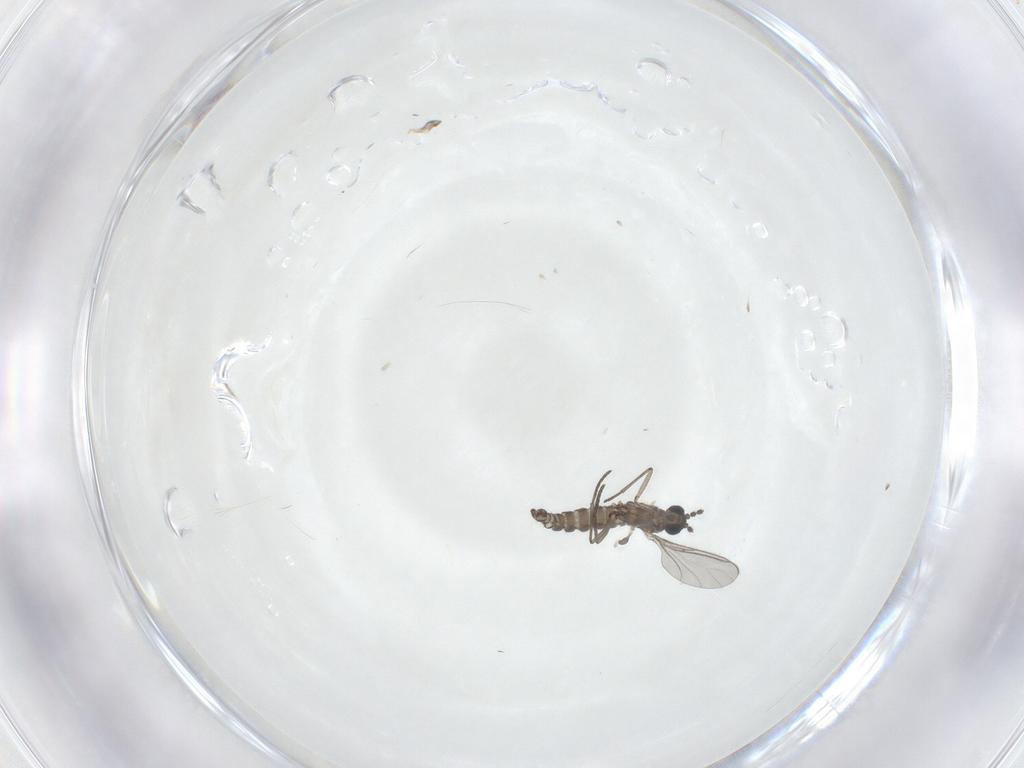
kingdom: Animalia
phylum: Arthropoda
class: Insecta
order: Diptera
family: Sciaridae
